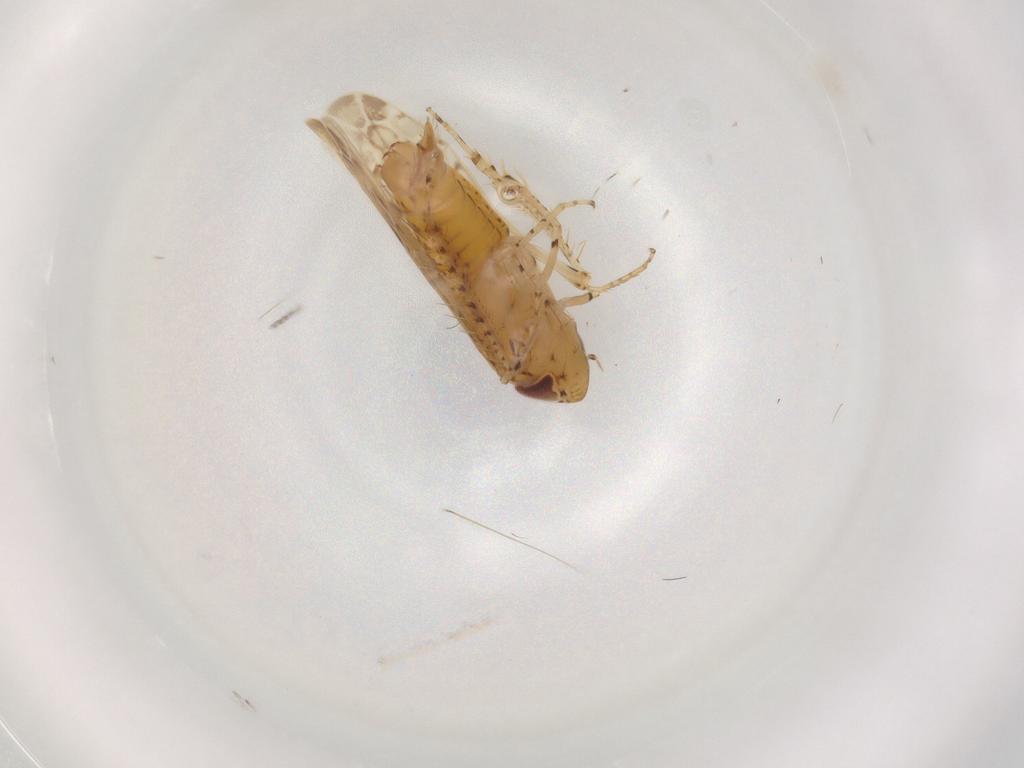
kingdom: Animalia
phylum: Arthropoda
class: Insecta
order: Hemiptera
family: Cicadellidae
